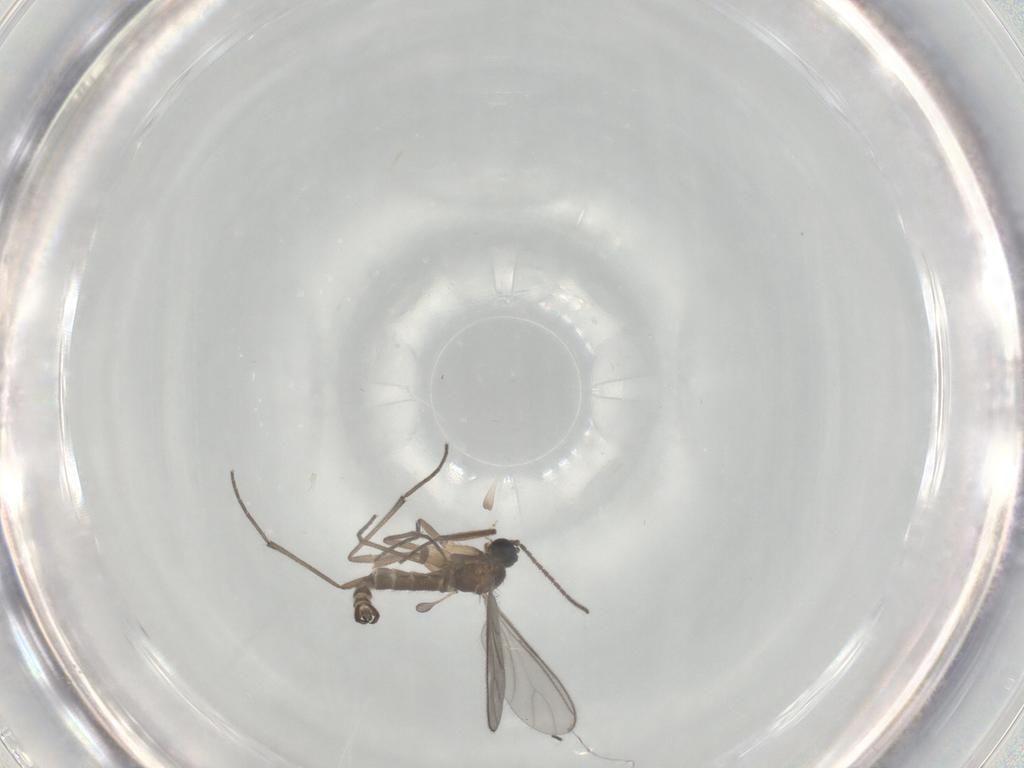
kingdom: Animalia
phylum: Arthropoda
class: Insecta
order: Diptera
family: Sciaridae
